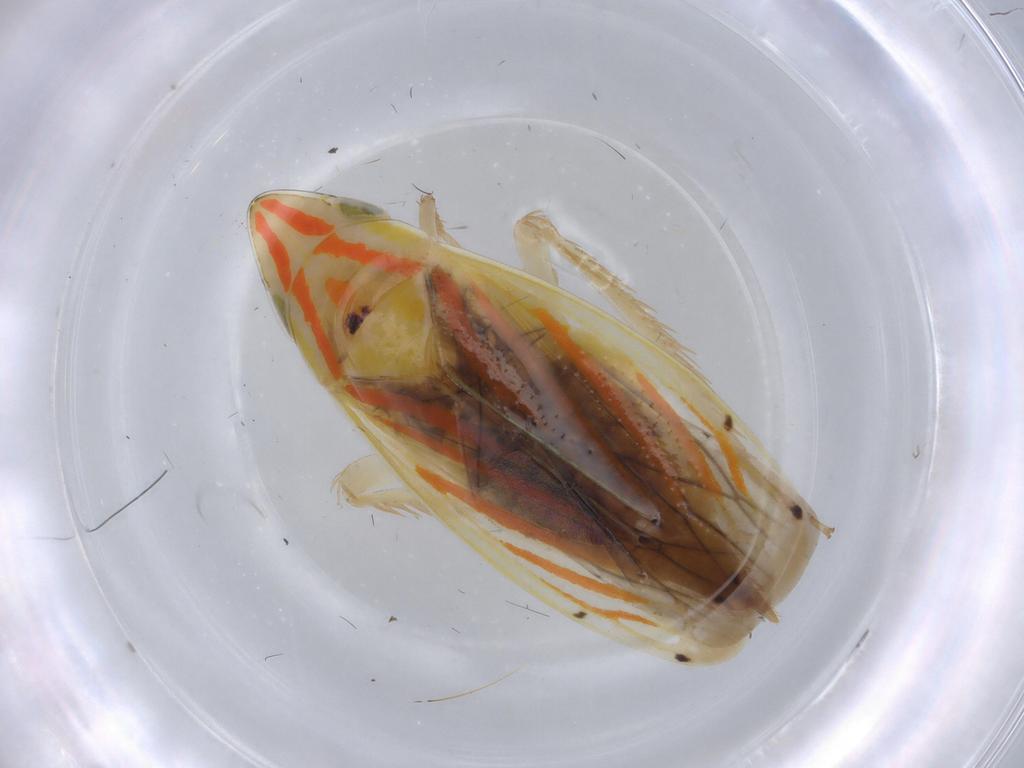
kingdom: Animalia
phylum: Arthropoda
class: Insecta
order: Hemiptera
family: Cicadellidae
